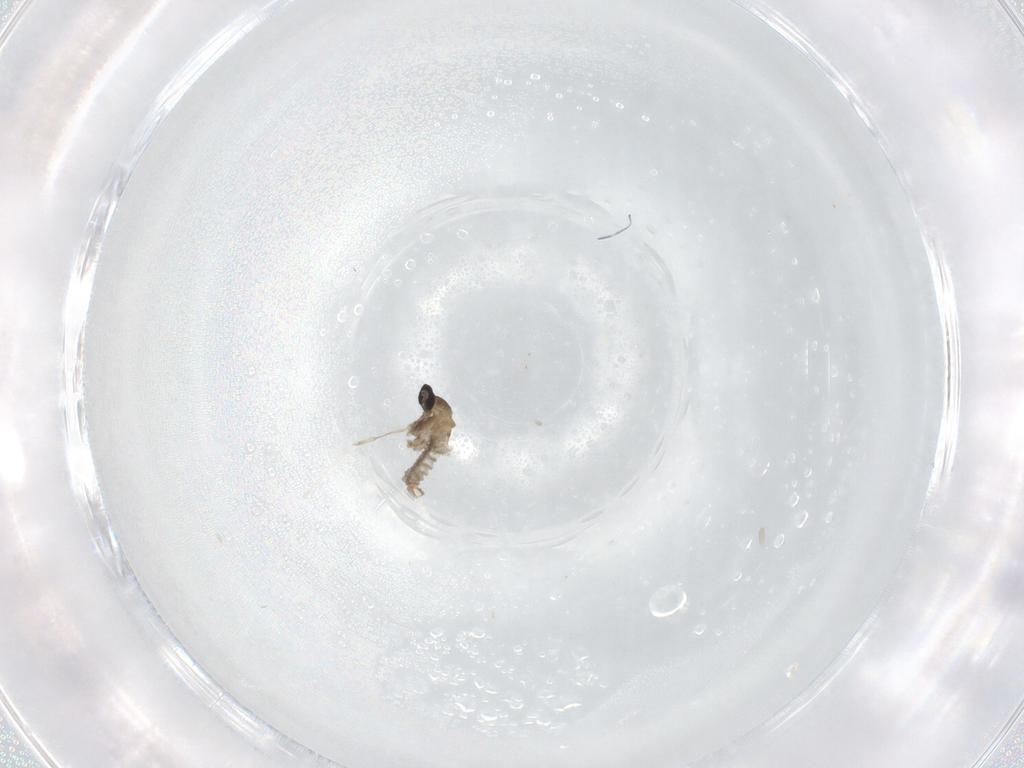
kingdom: Animalia
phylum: Arthropoda
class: Insecta
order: Diptera
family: Cecidomyiidae
